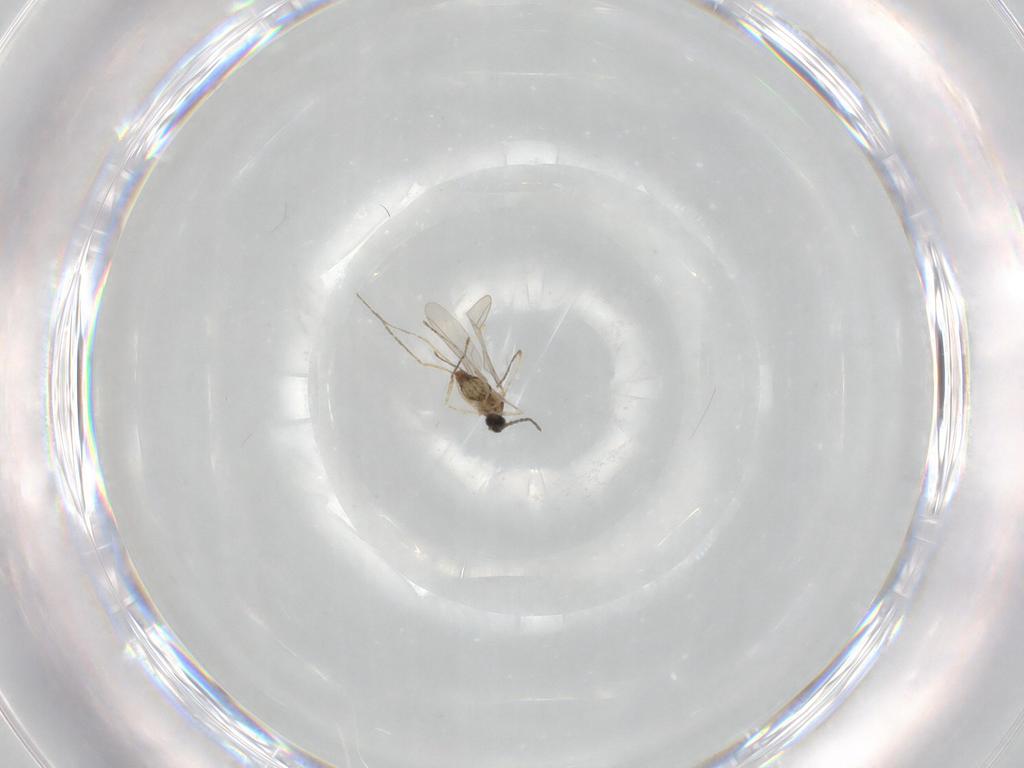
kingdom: Animalia
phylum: Arthropoda
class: Insecta
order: Diptera
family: Cecidomyiidae
